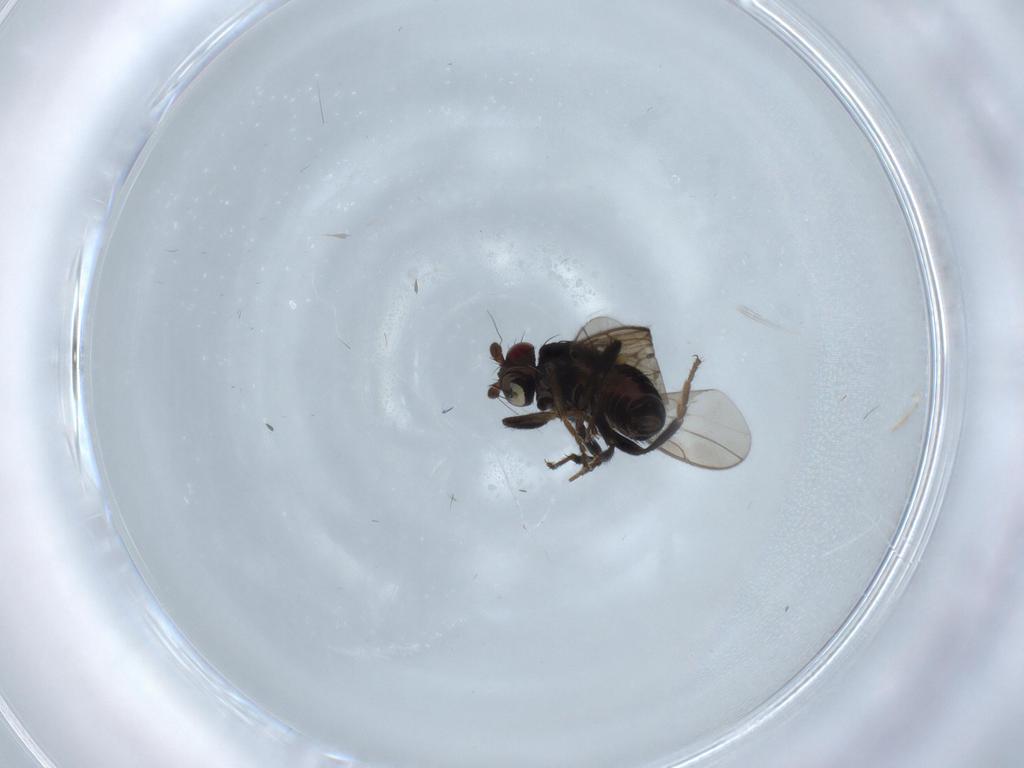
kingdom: Animalia
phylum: Arthropoda
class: Insecta
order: Diptera
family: Sphaeroceridae
